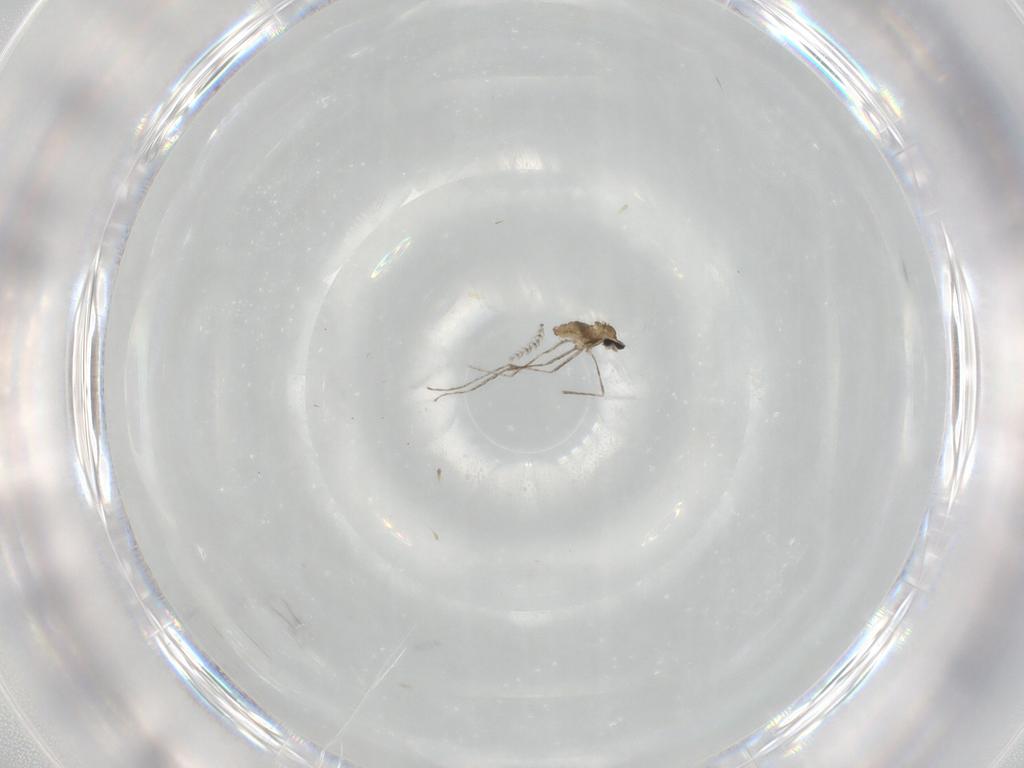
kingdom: Animalia
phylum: Arthropoda
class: Insecta
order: Diptera
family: Cecidomyiidae
